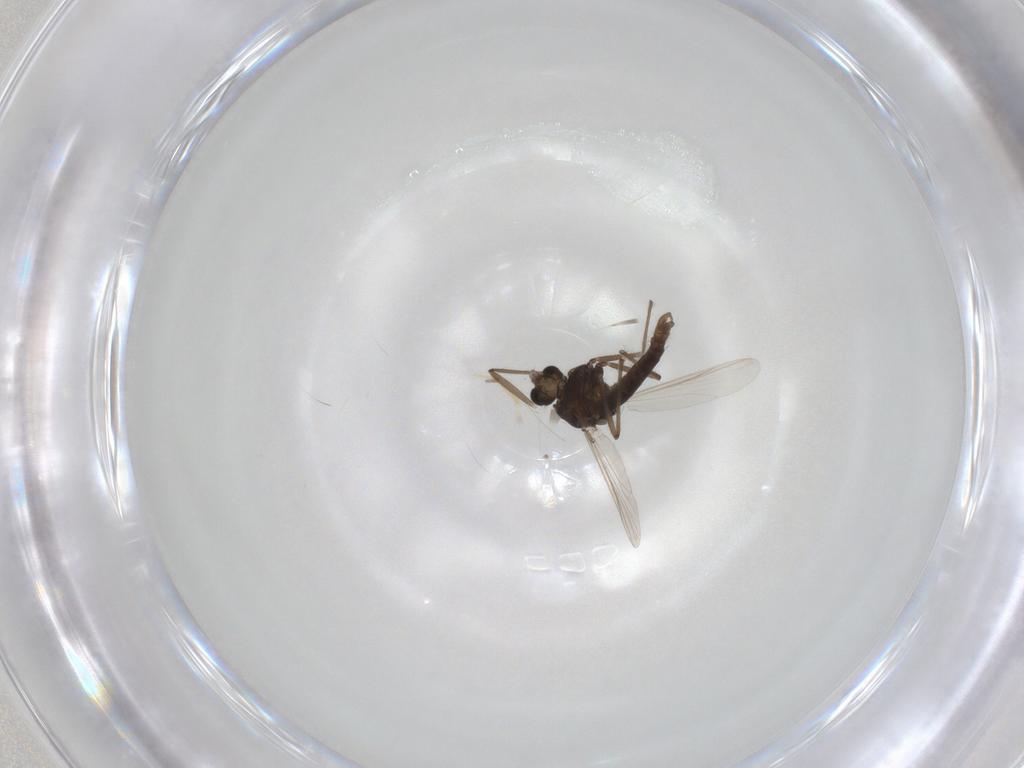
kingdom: Animalia
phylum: Arthropoda
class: Insecta
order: Diptera
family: Chironomidae
